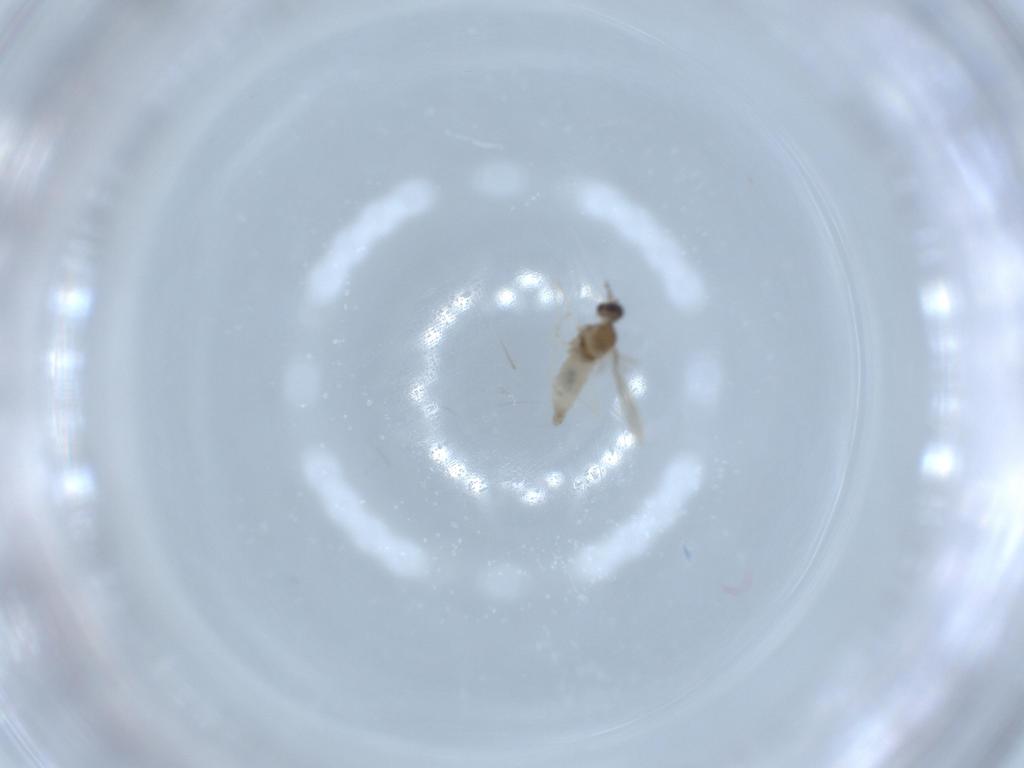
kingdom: Animalia
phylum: Arthropoda
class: Insecta
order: Diptera
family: Cecidomyiidae
